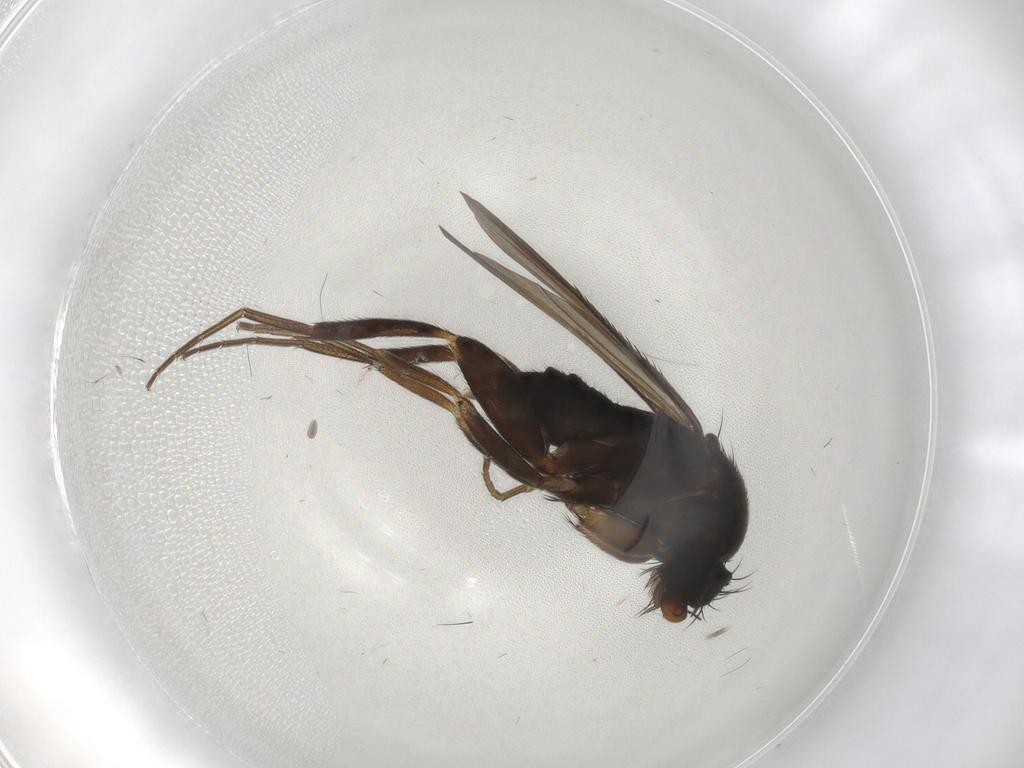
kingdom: Animalia
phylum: Arthropoda
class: Insecta
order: Diptera
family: Phoridae
